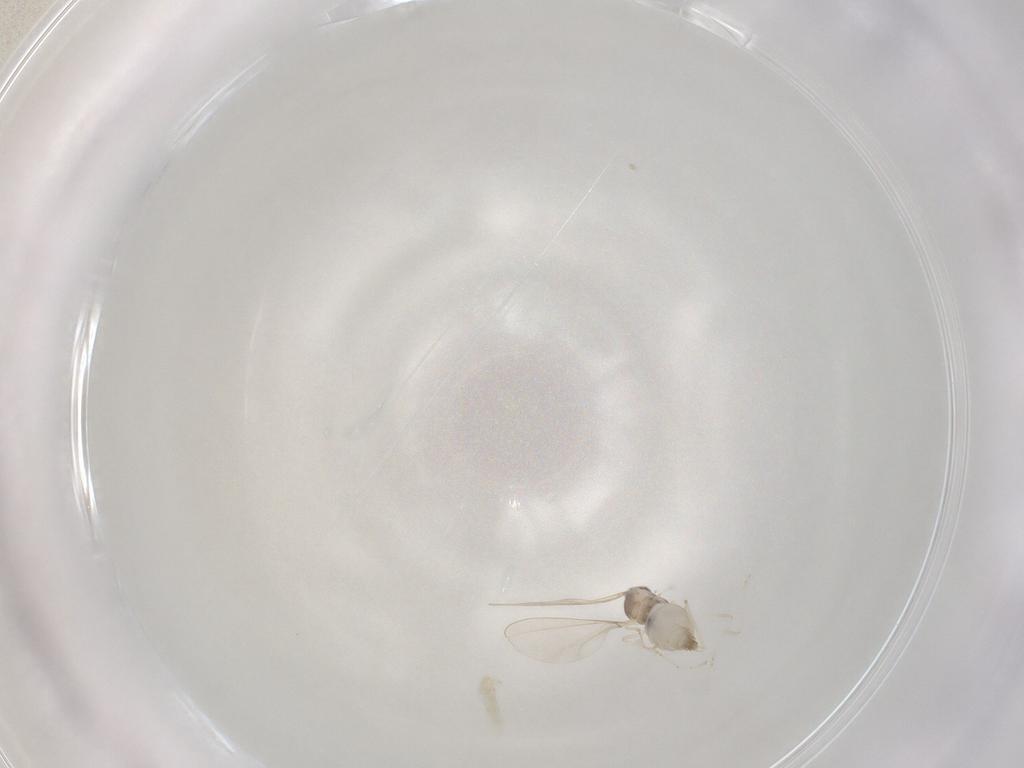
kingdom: Animalia
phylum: Arthropoda
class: Insecta
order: Diptera
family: Cecidomyiidae
